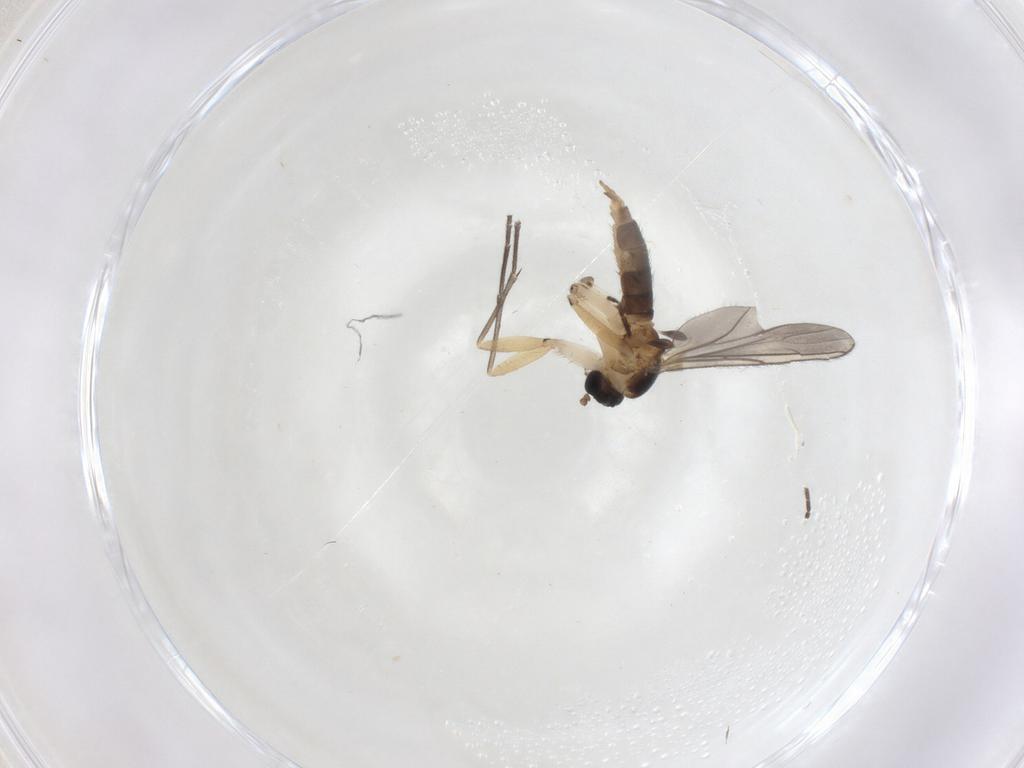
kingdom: Animalia
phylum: Arthropoda
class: Insecta
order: Diptera
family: Sciaridae
